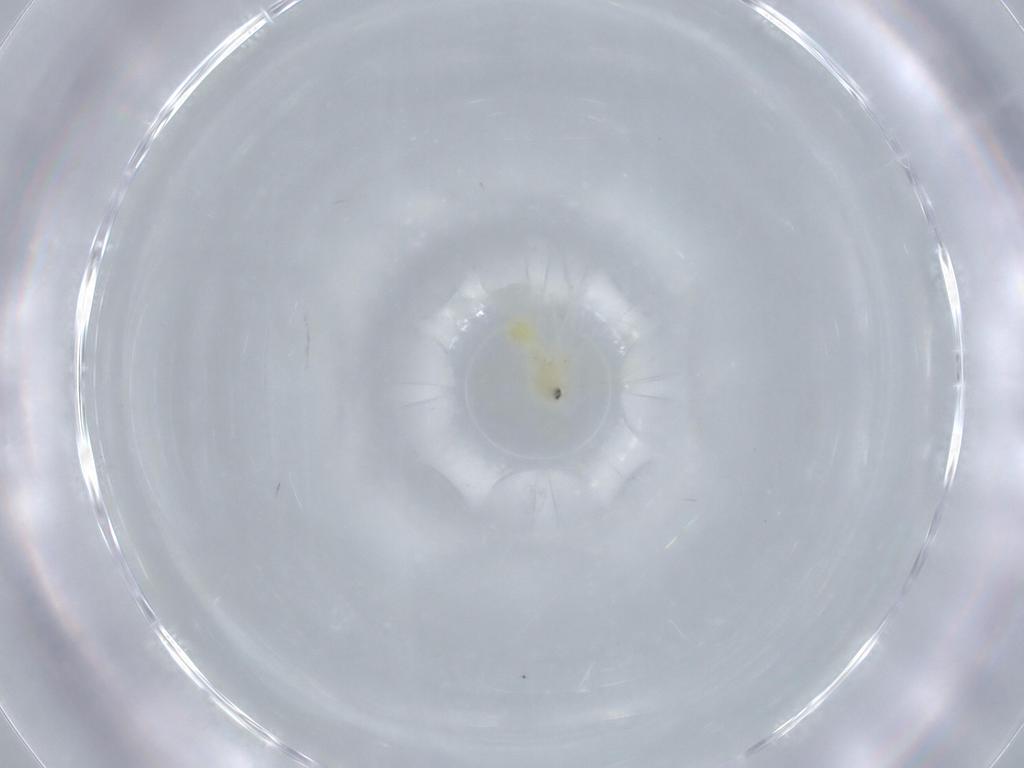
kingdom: Animalia
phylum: Arthropoda
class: Insecta
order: Hemiptera
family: Aleyrodidae
